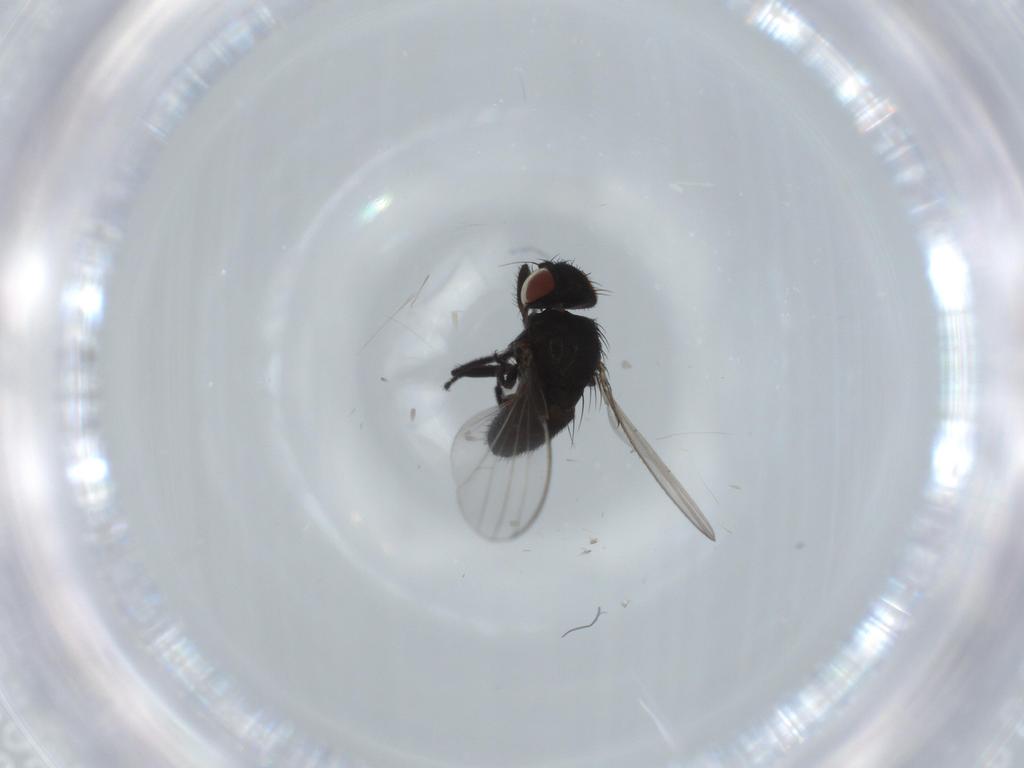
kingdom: Animalia
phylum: Arthropoda
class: Insecta
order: Diptera
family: Milichiidae
